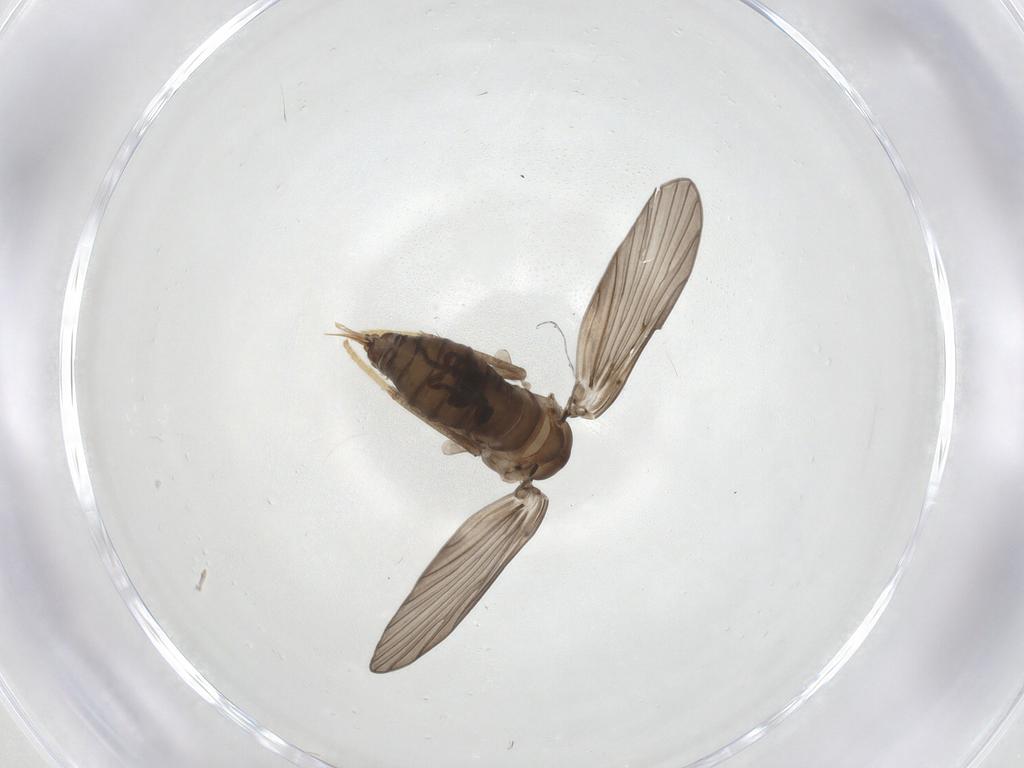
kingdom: Animalia
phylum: Arthropoda
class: Insecta
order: Diptera
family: Psychodidae
